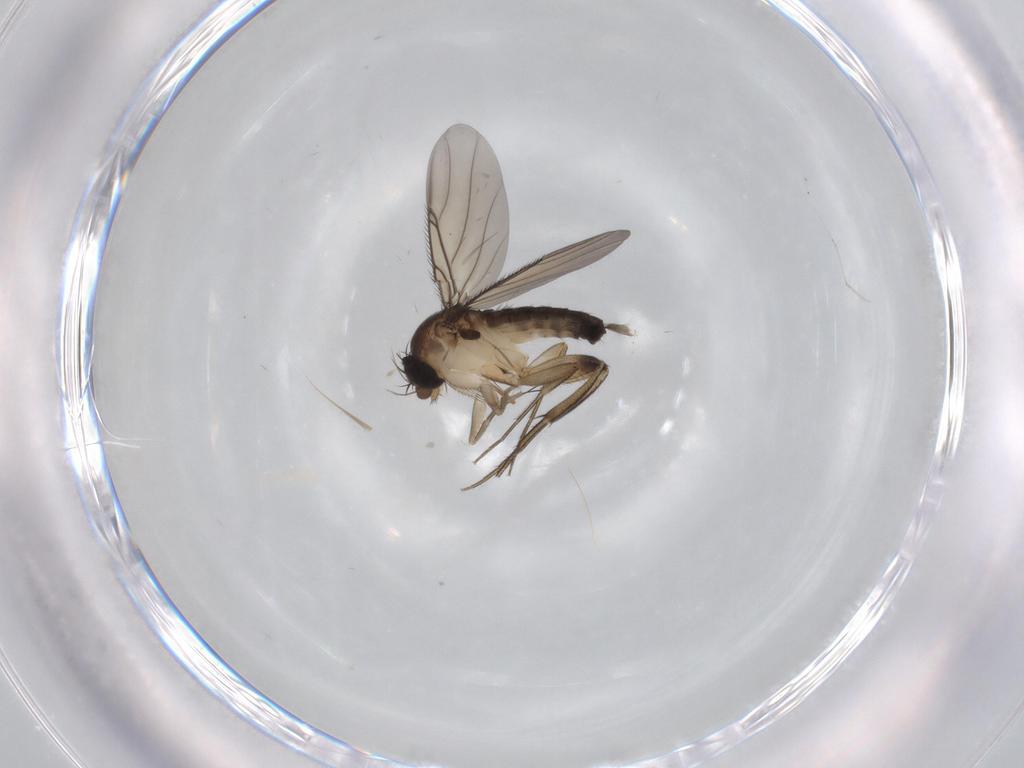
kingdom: Animalia
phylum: Arthropoda
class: Insecta
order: Diptera
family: Phoridae
